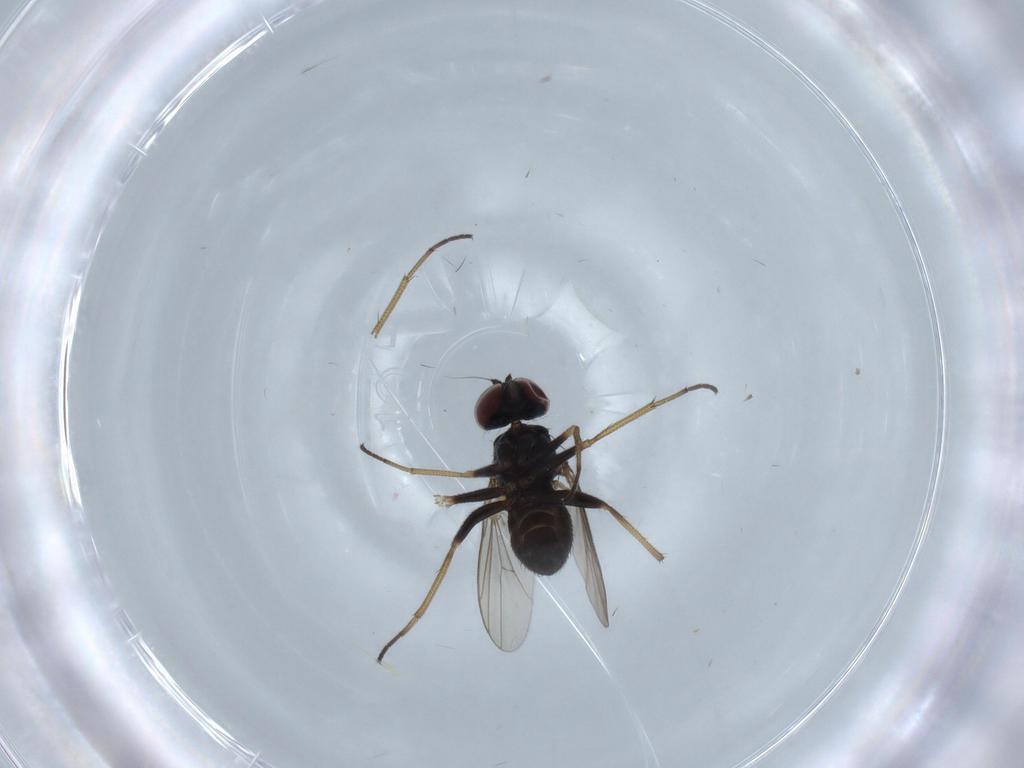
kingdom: Animalia
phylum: Arthropoda
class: Insecta
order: Diptera
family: Dolichopodidae
